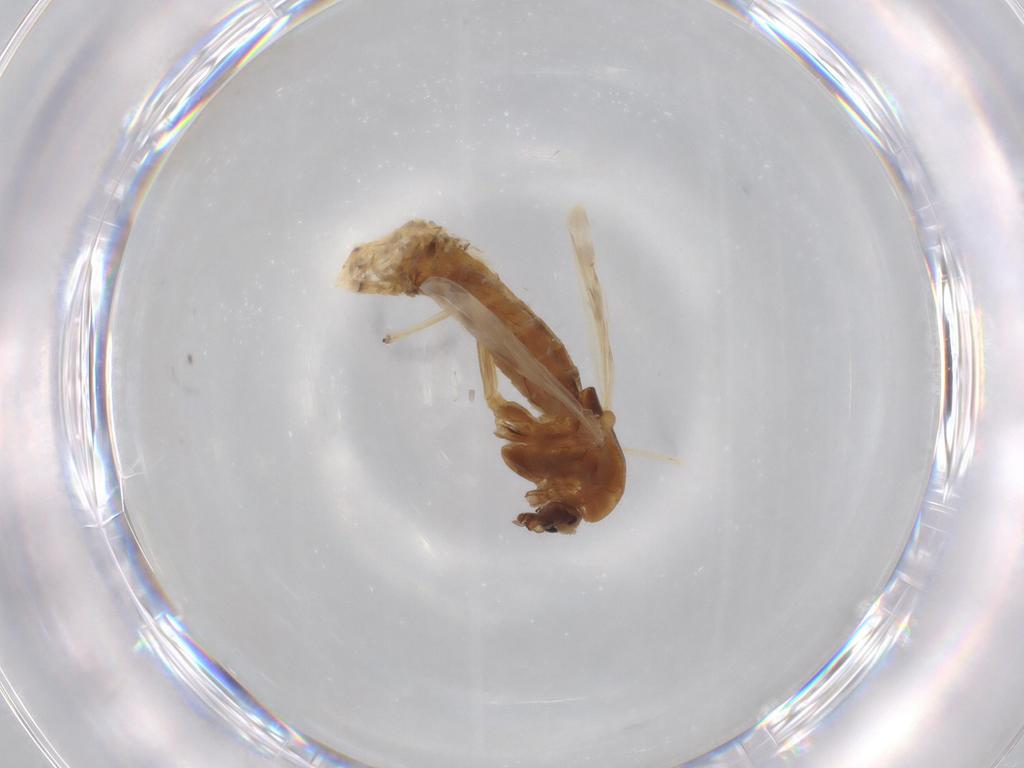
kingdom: Animalia
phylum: Arthropoda
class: Insecta
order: Diptera
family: Chironomidae
